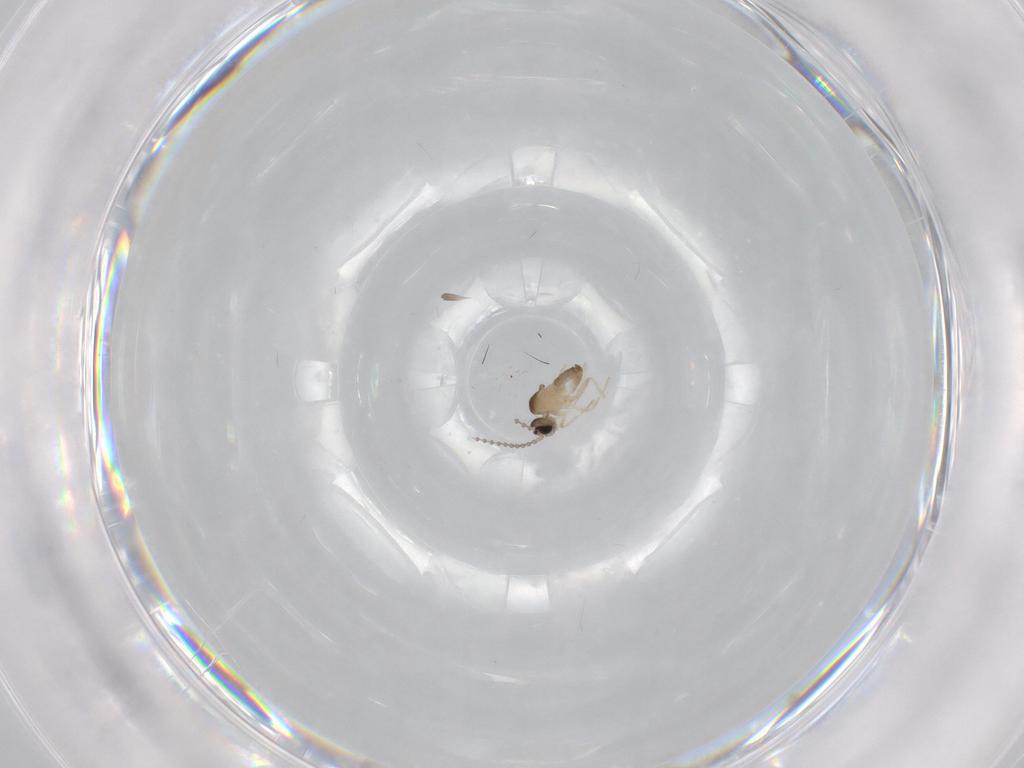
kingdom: Animalia
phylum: Arthropoda
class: Insecta
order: Diptera
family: Cecidomyiidae
